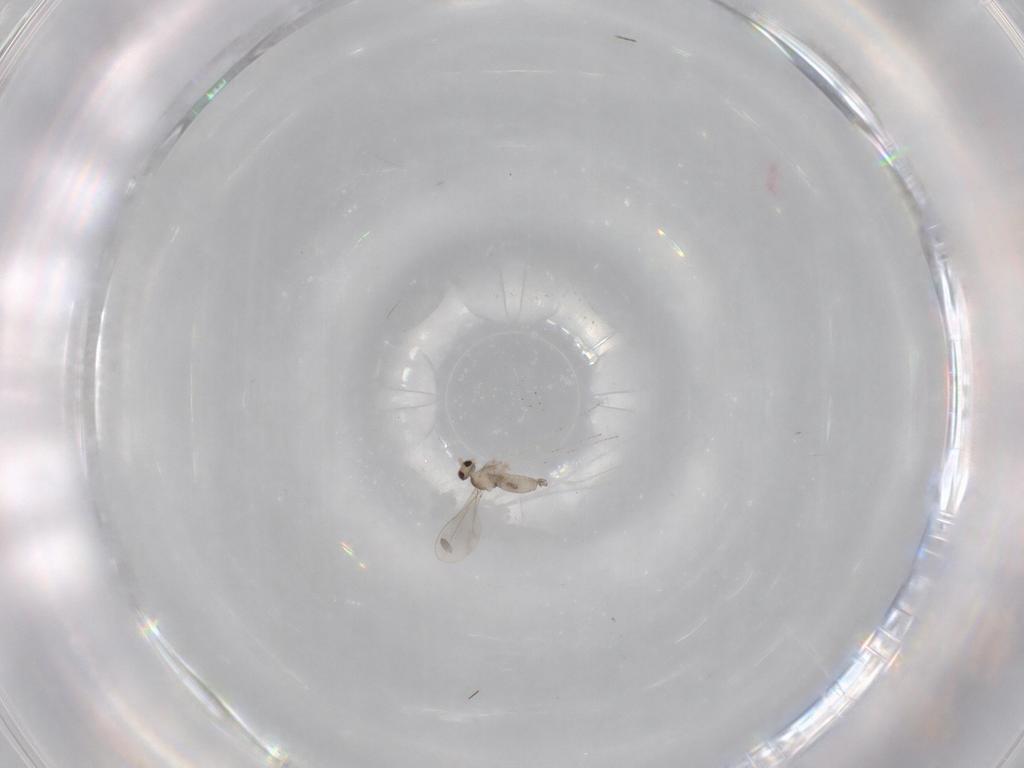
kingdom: Animalia
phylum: Arthropoda
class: Insecta
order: Diptera
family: Cecidomyiidae
